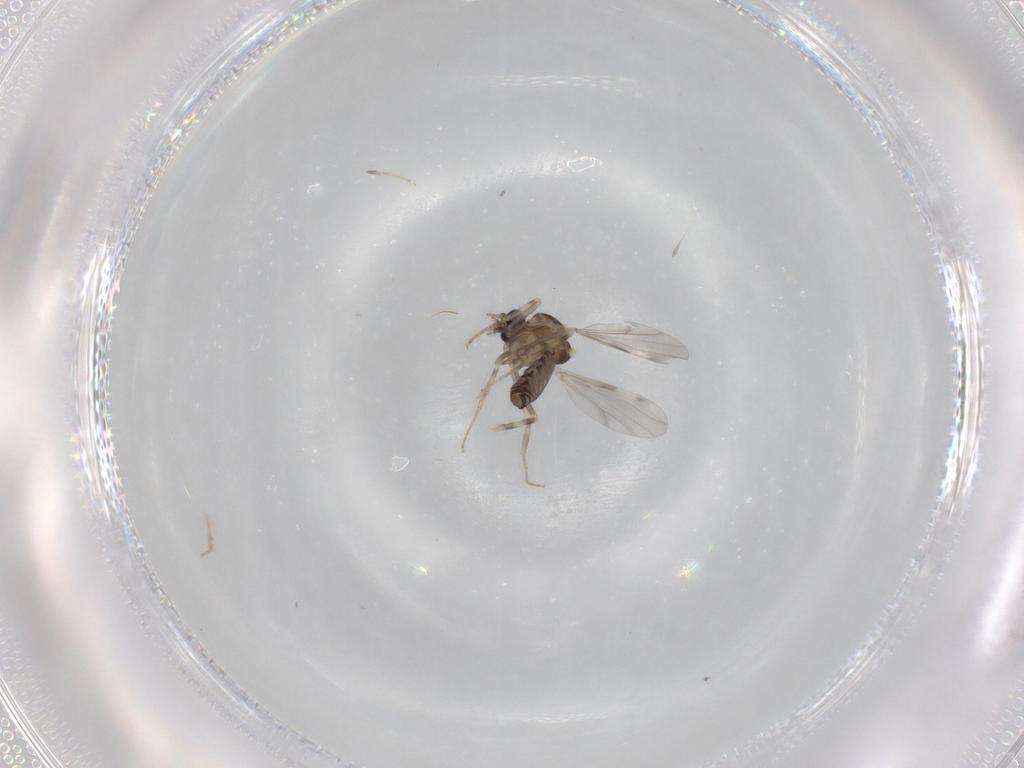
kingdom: Animalia
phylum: Arthropoda
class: Insecta
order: Diptera
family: Ceratopogonidae
